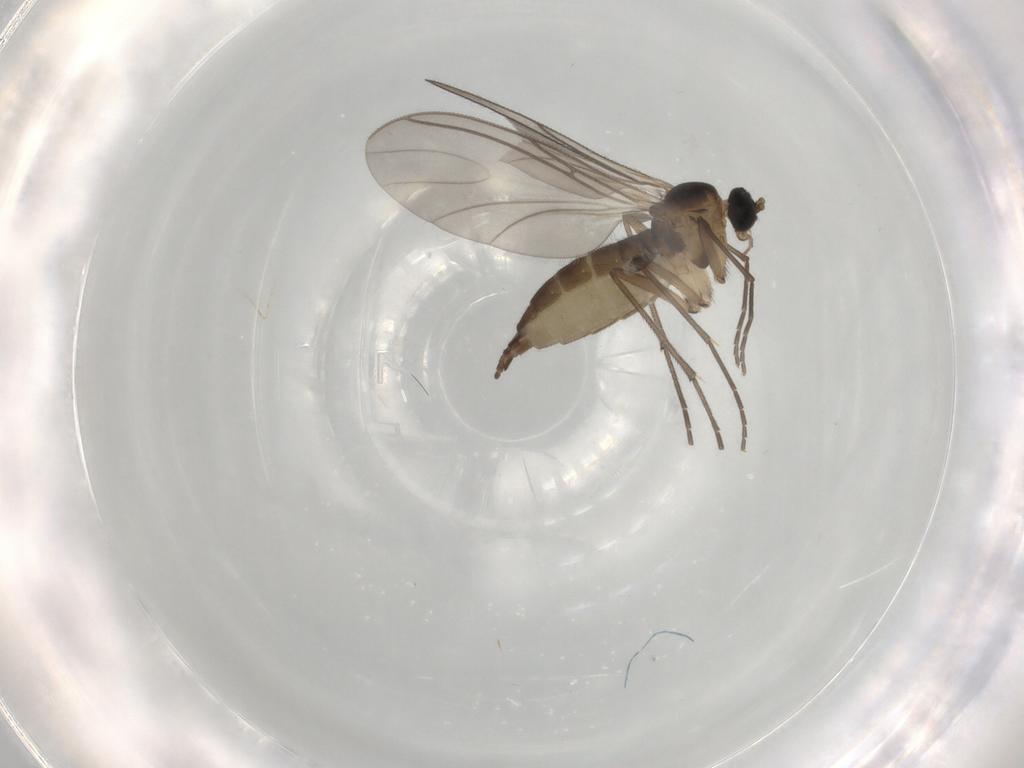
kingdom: Animalia
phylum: Arthropoda
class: Insecta
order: Diptera
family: Sciaridae
